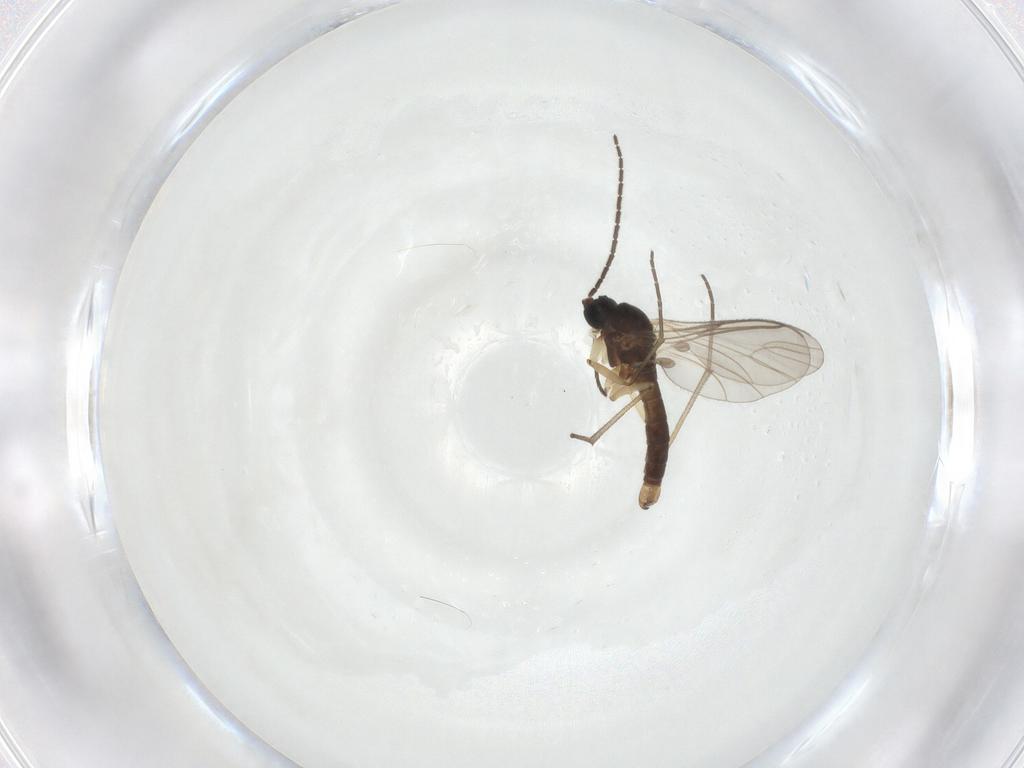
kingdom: Animalia
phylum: Arthropoda
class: Insecta
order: Diptera
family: Sciaridae
